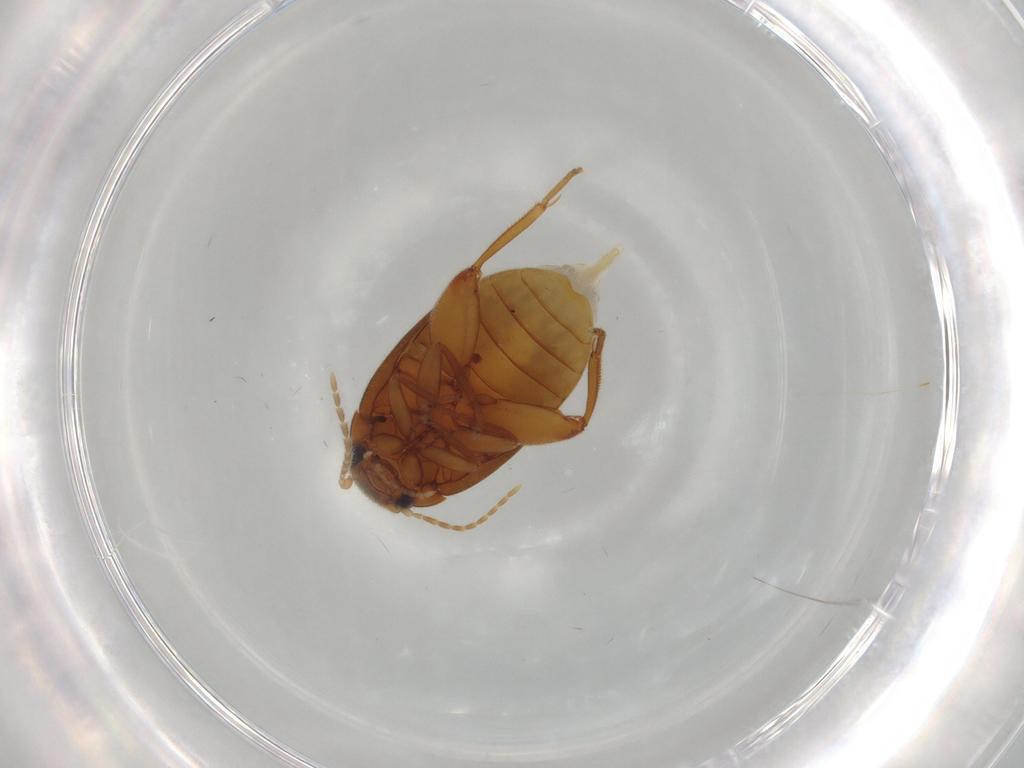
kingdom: Animalia
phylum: Arthropoda
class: Insecta
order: Coleoptera
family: Scirtidae
